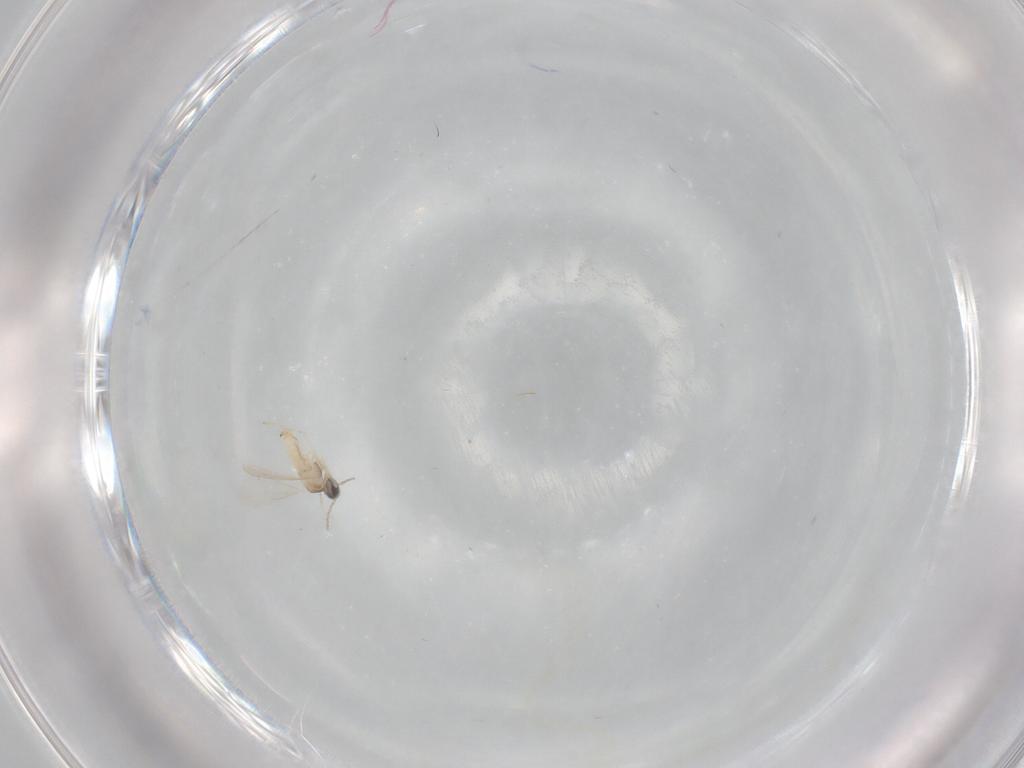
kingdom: Animalia
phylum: Arthropoda
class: Insecta
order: Diptera
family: Cecidomyiidae
